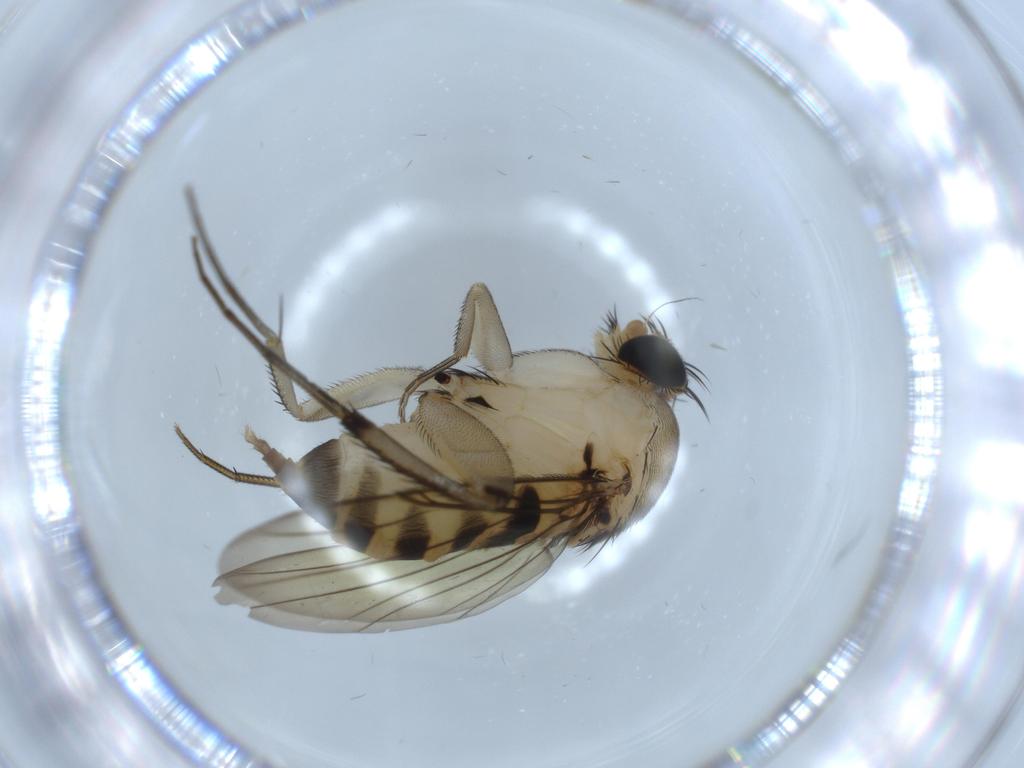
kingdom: Animalia
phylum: Arthropoda
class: Insecta
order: Diptera
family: Phoridae
